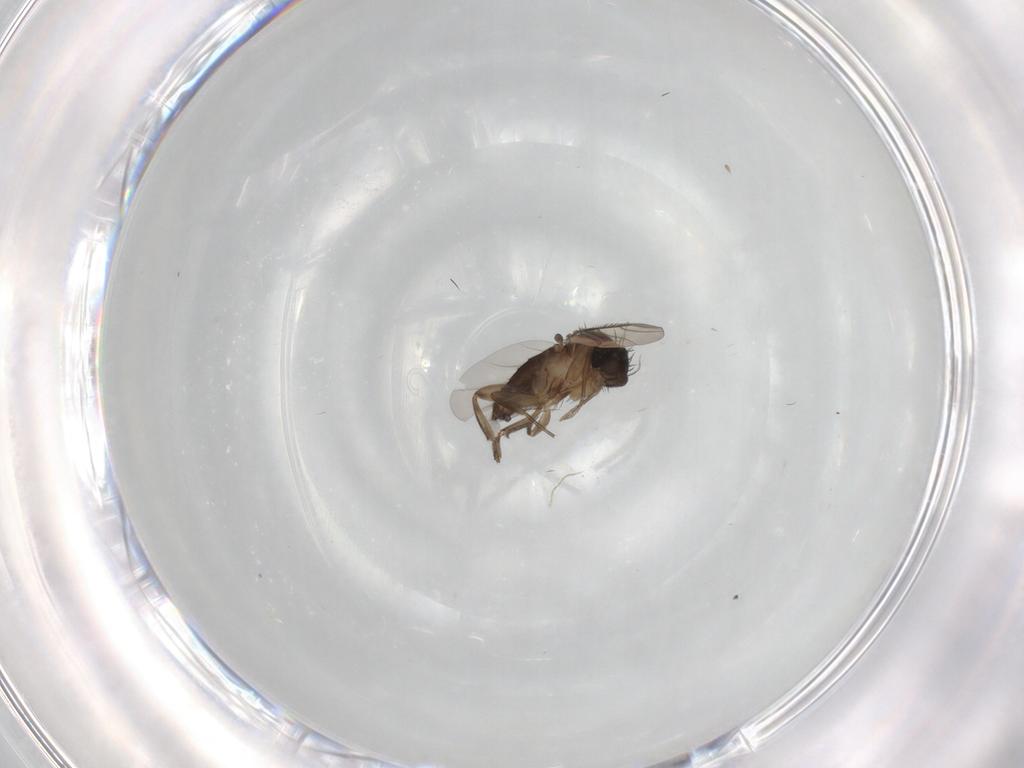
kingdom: Animalia
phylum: Arthropoda
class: Insecta
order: Diptera
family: Phoridae
